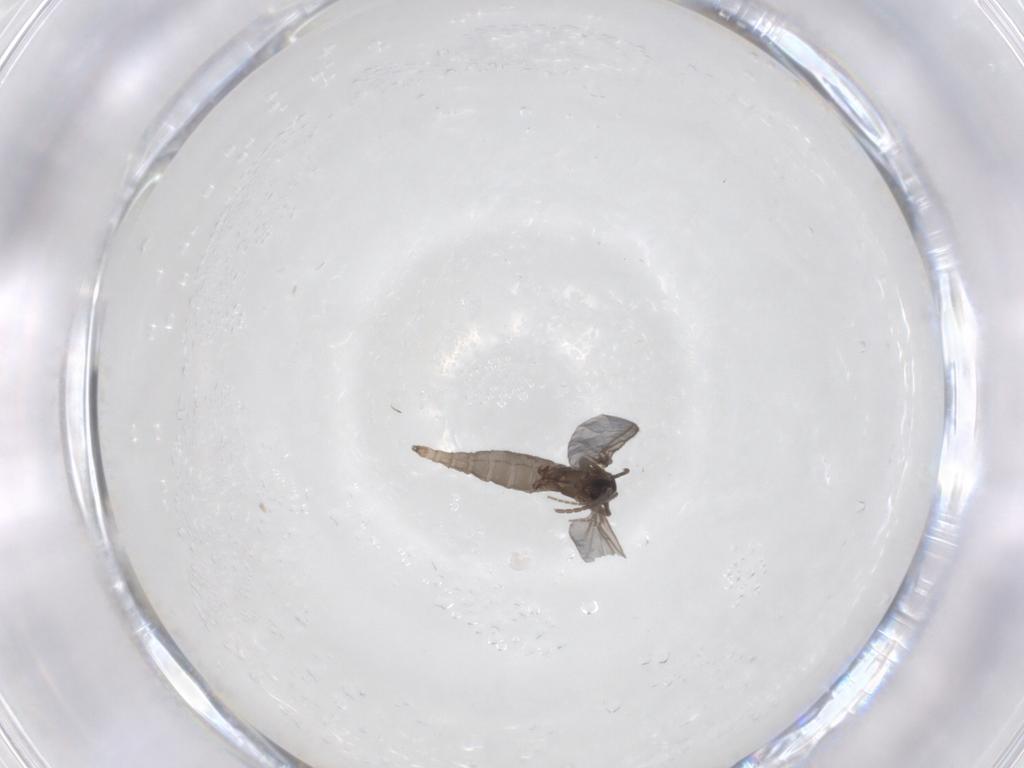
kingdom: Animalia
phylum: Arthropoda
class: Insecta
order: Diptera
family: Sciaridae
